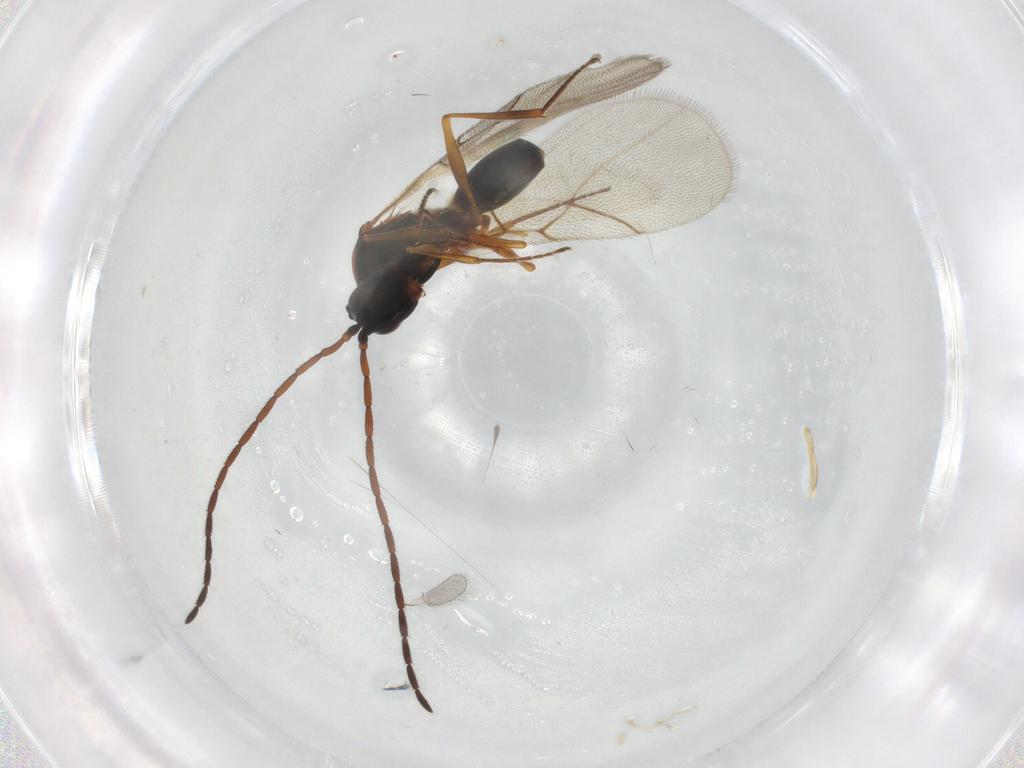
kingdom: Animalia
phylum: Arthropoda
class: Insecta
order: Hymenoptera
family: Figitidae
